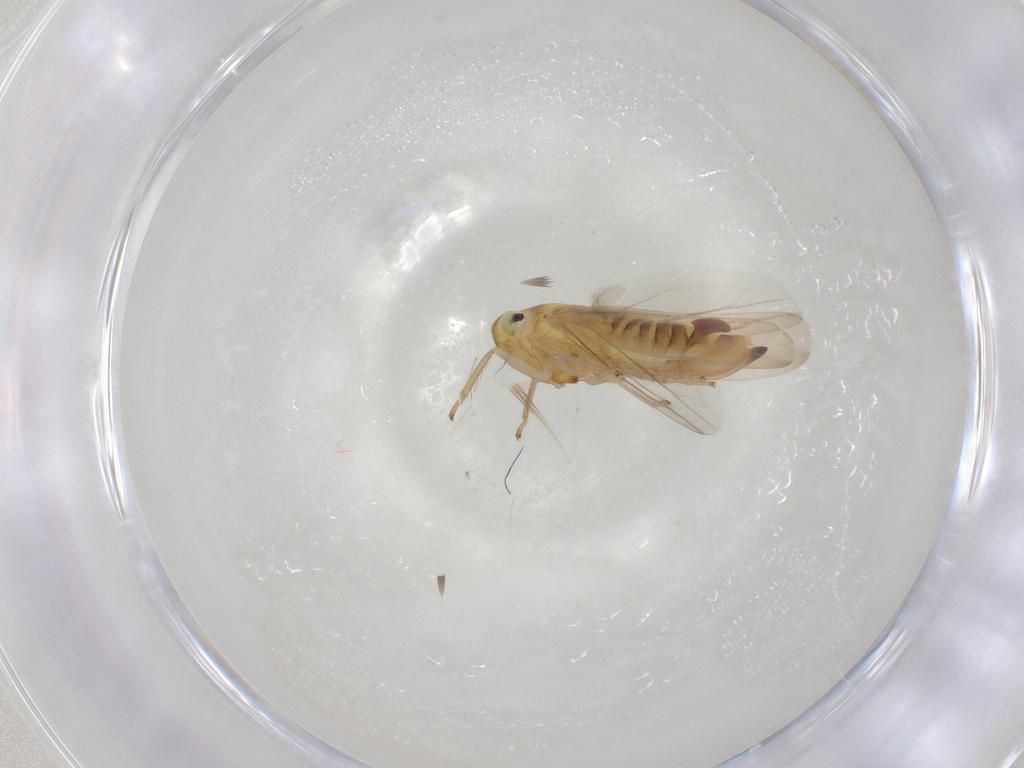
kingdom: Animalia
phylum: Arthropoda
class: Insecta
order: Hemiptera
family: Cicadellidae
